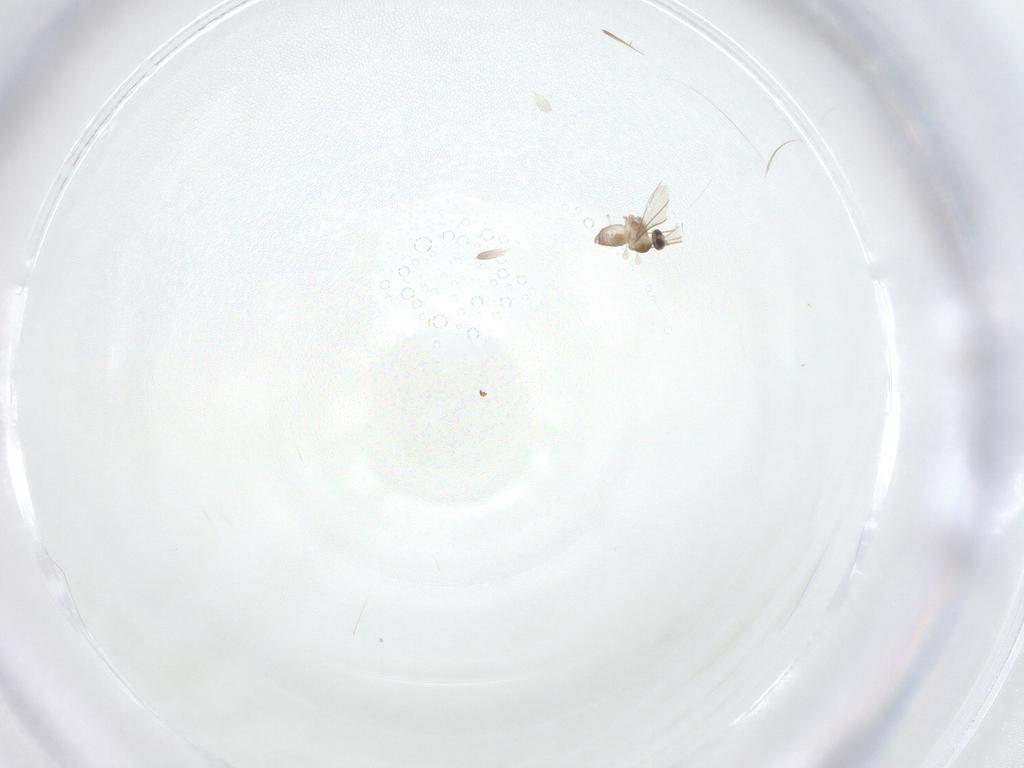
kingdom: Animalia
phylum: Arthropoda
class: Insecta
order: Diptera
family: Cecidomyiidae
